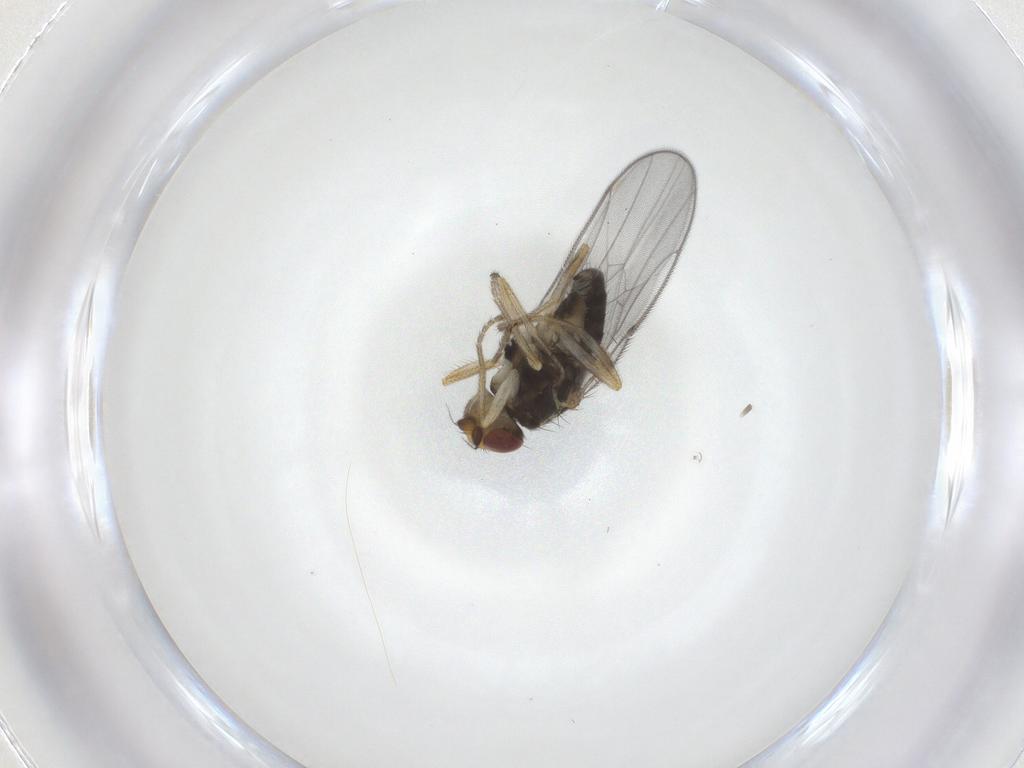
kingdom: Animalia
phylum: Arthropoda
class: Insecta
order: Diptera
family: Chloropidae
